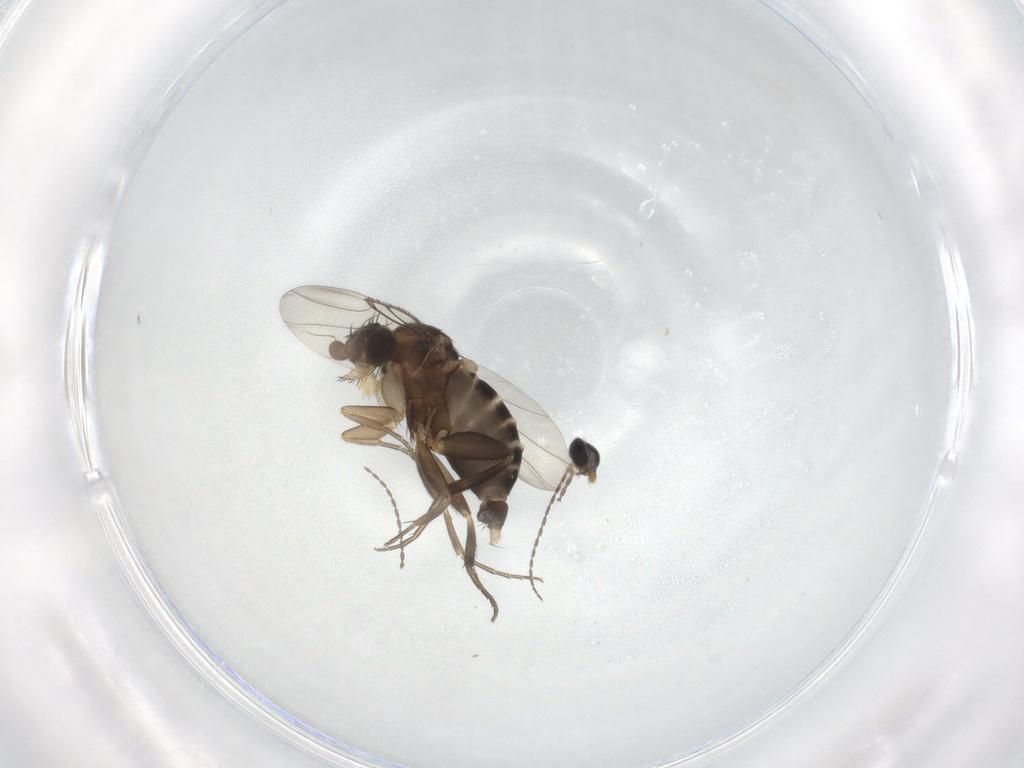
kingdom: Animalia
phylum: Arthropoda
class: Insecta
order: Diptera
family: Phoridae
